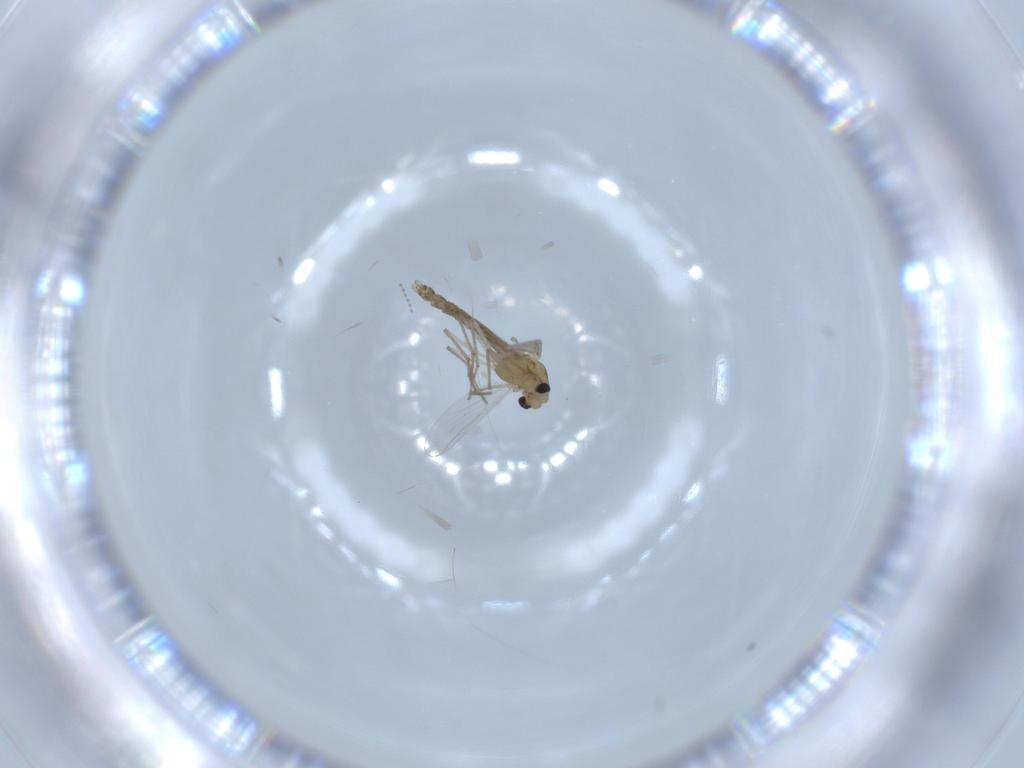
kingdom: Animalia
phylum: Arthropoda
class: Insecta
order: Diptera
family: Chironomidae
